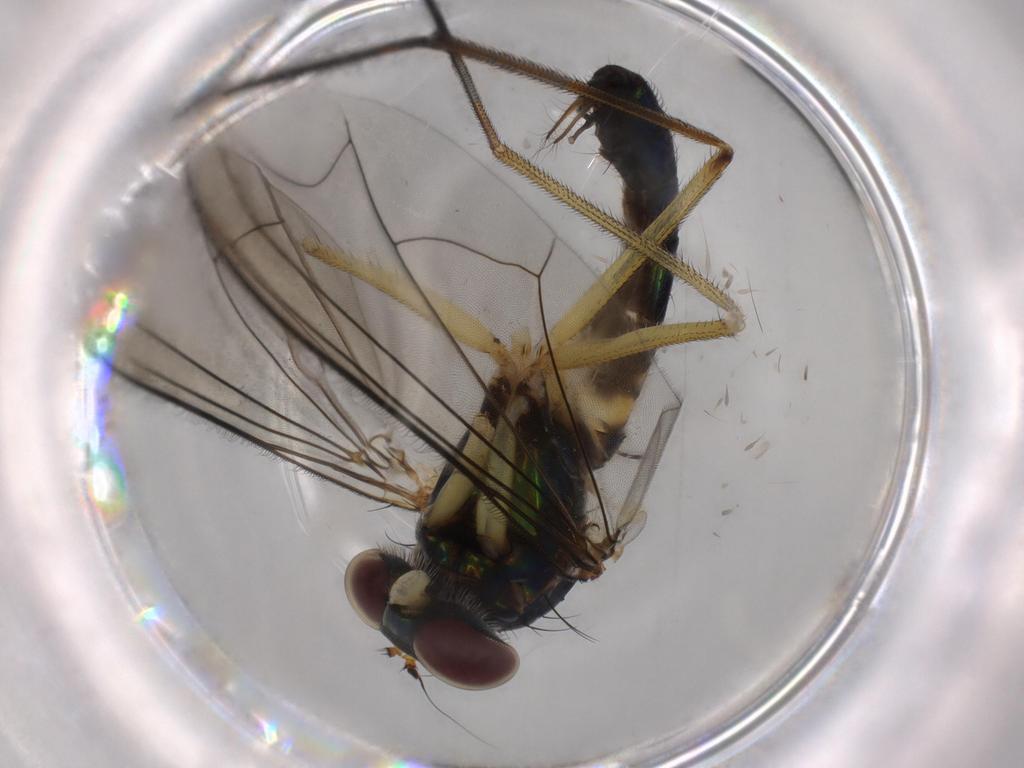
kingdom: Animalia
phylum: Arthropoda
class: Insecta
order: Diptera
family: Dolichopodidae
